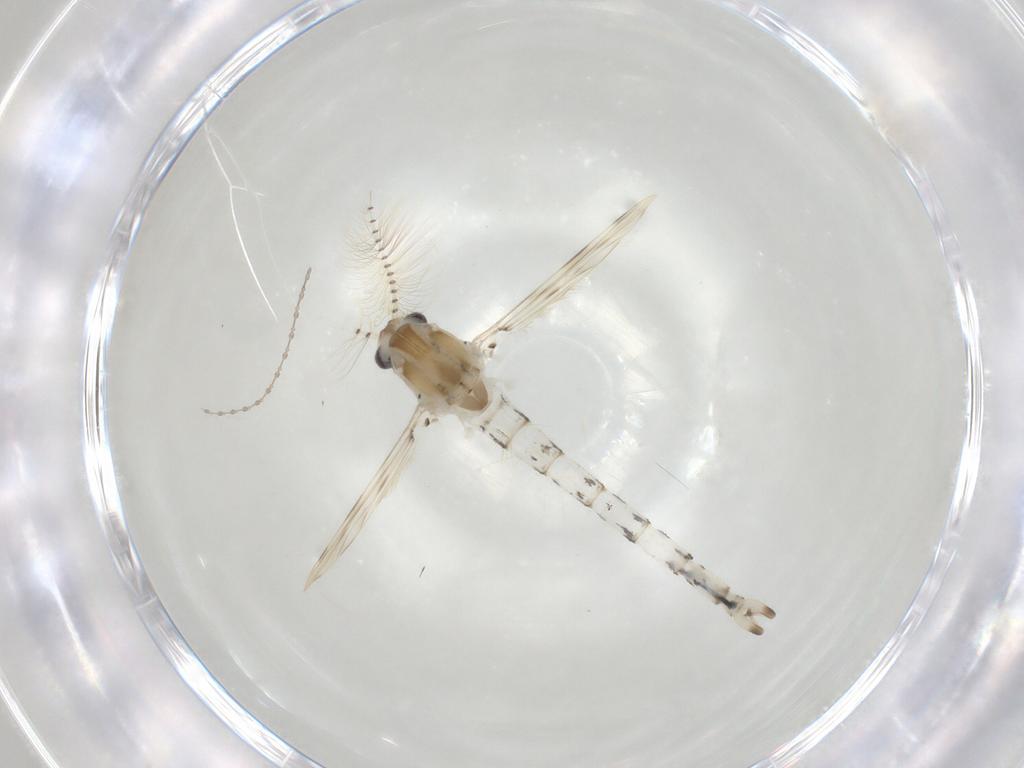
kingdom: Animalia
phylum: Arthropoda
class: Insecta
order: Diptera
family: Chaoboridae
